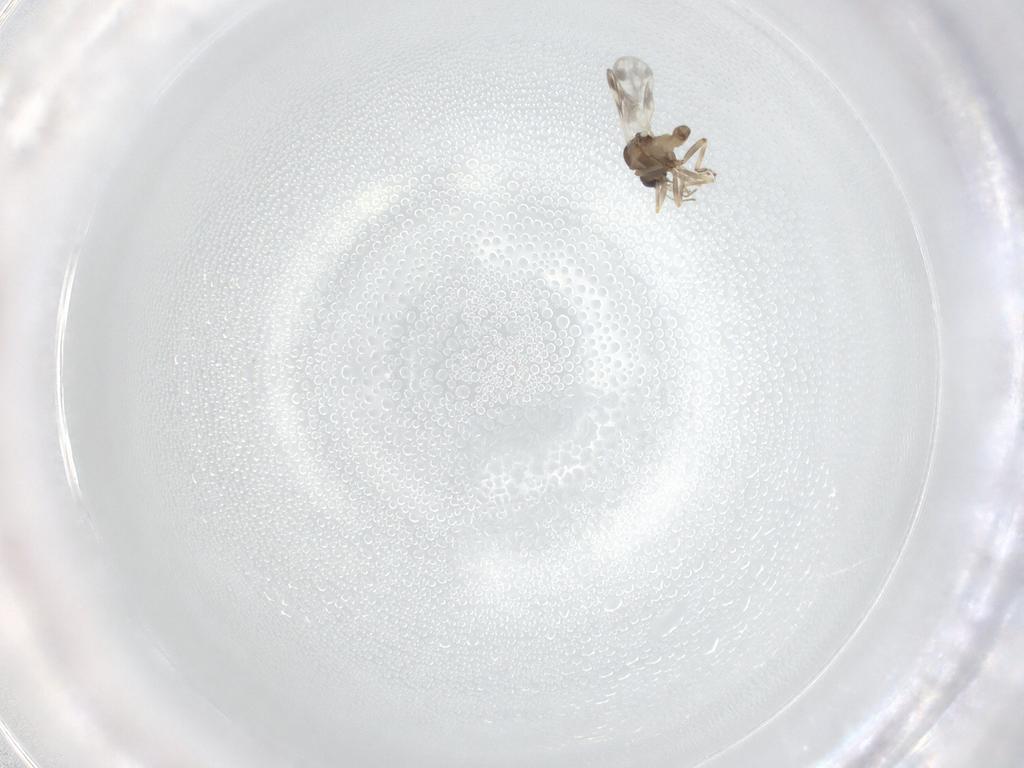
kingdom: Animalia
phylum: Arthropoda
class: Insecta
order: Diptera
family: Ceratopogonidae
